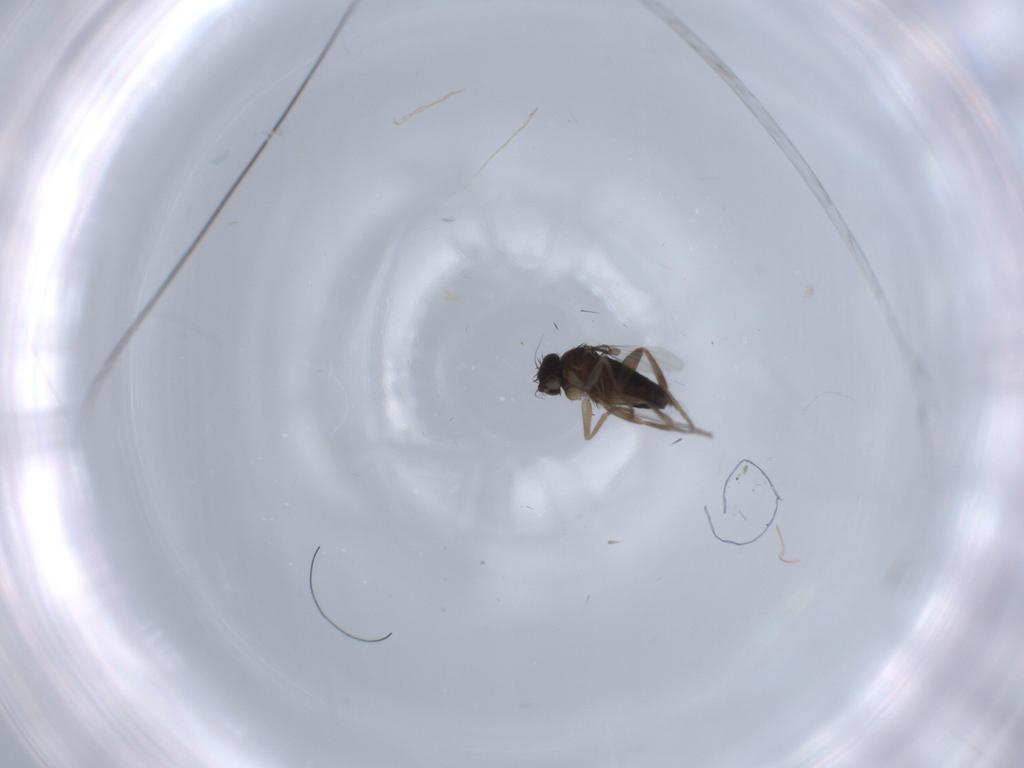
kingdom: Animalia
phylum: Arthropoda
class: Insecta
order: Diptera
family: Phoridae
